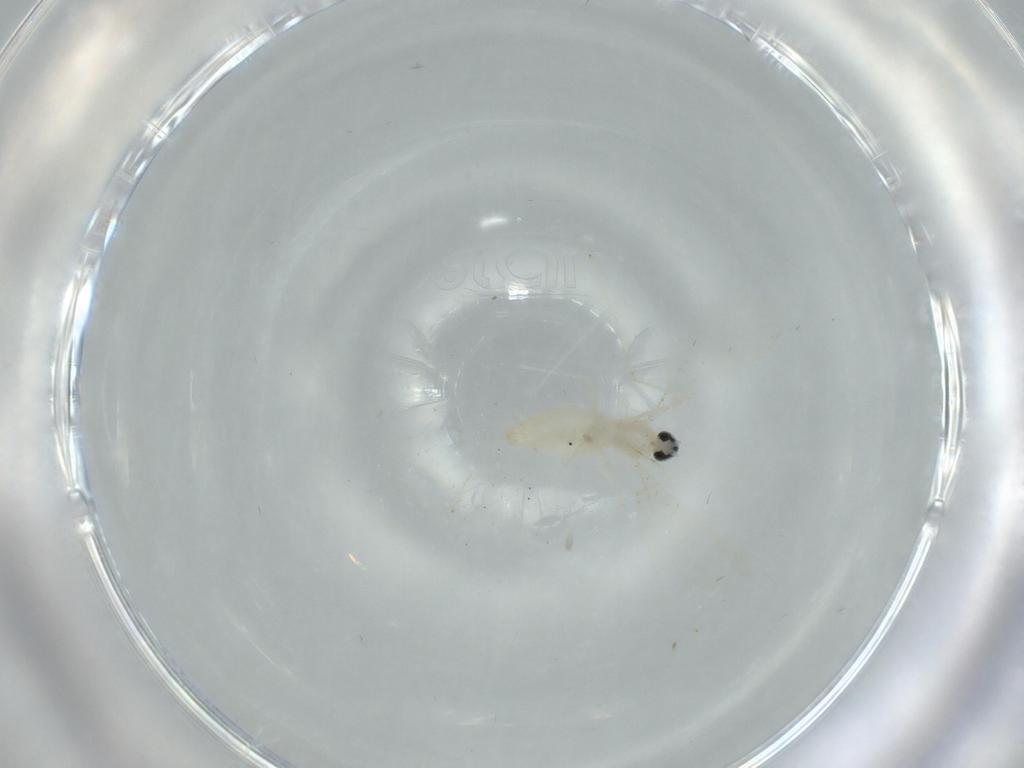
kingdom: Animalia
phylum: Arthropoda
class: Insecta
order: Diptera
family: Cecidomyiidae
